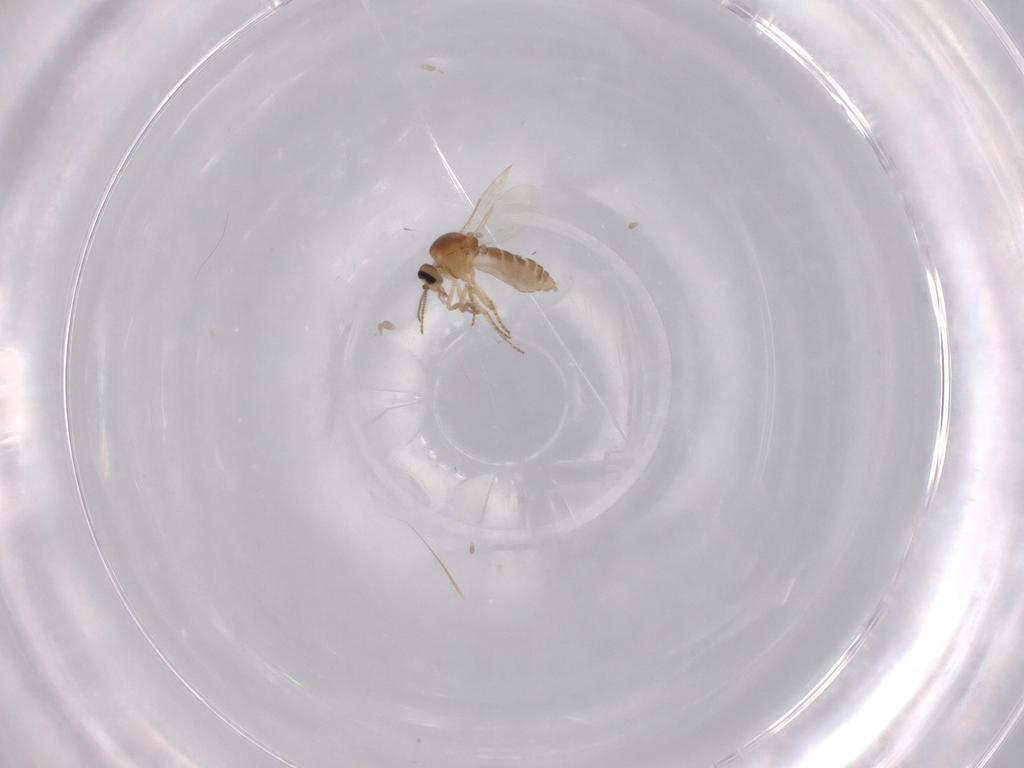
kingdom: Animalia
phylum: Arthropoda
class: Insecta
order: Diptera
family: Ceratopogonidae
